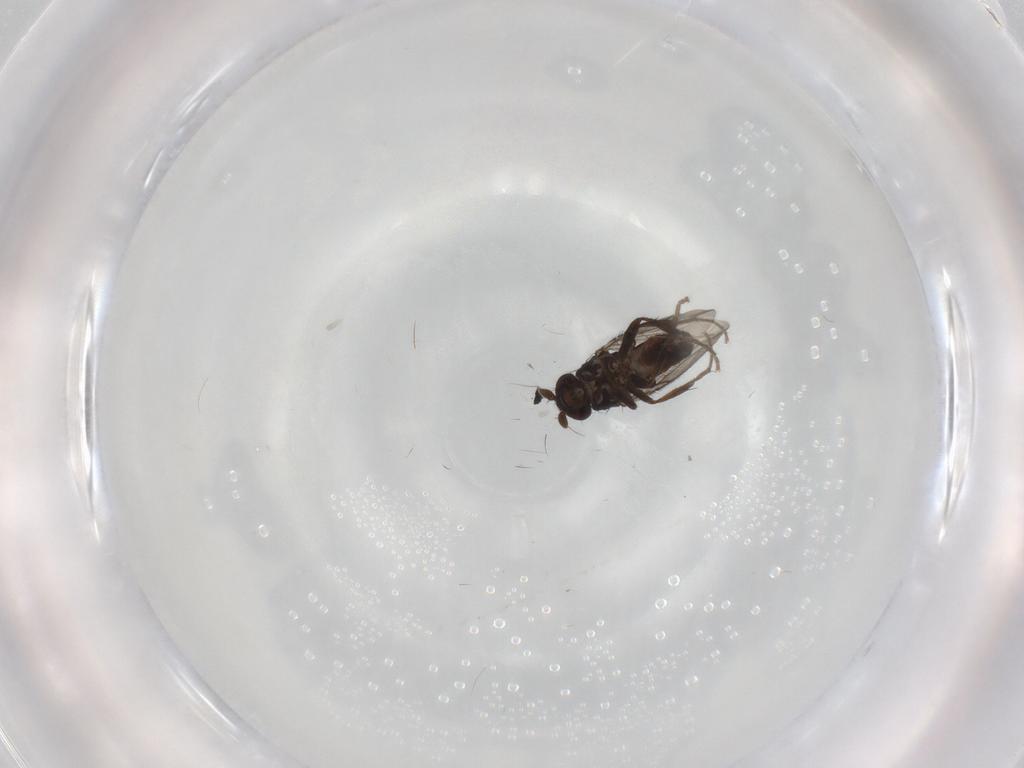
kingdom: Animalia
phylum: Arthropoda
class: Insecta
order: Diptera
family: Chironomidae
